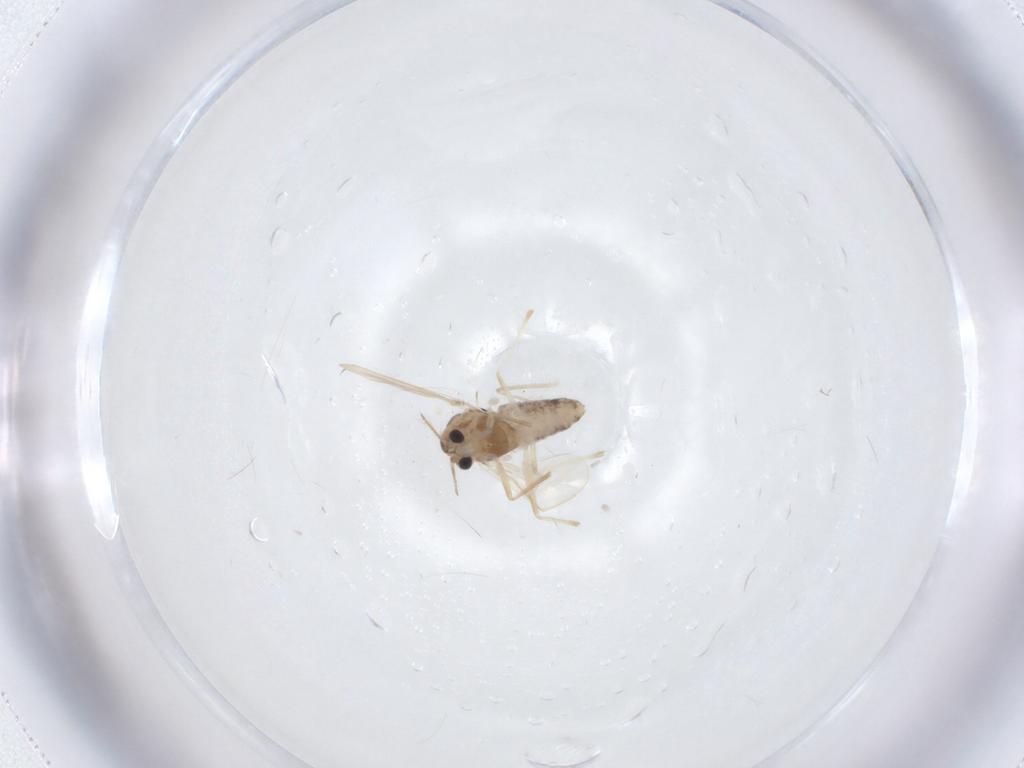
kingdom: Animalia
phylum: Arthropoda
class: Insecta
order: Diptera
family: Chironomidae
